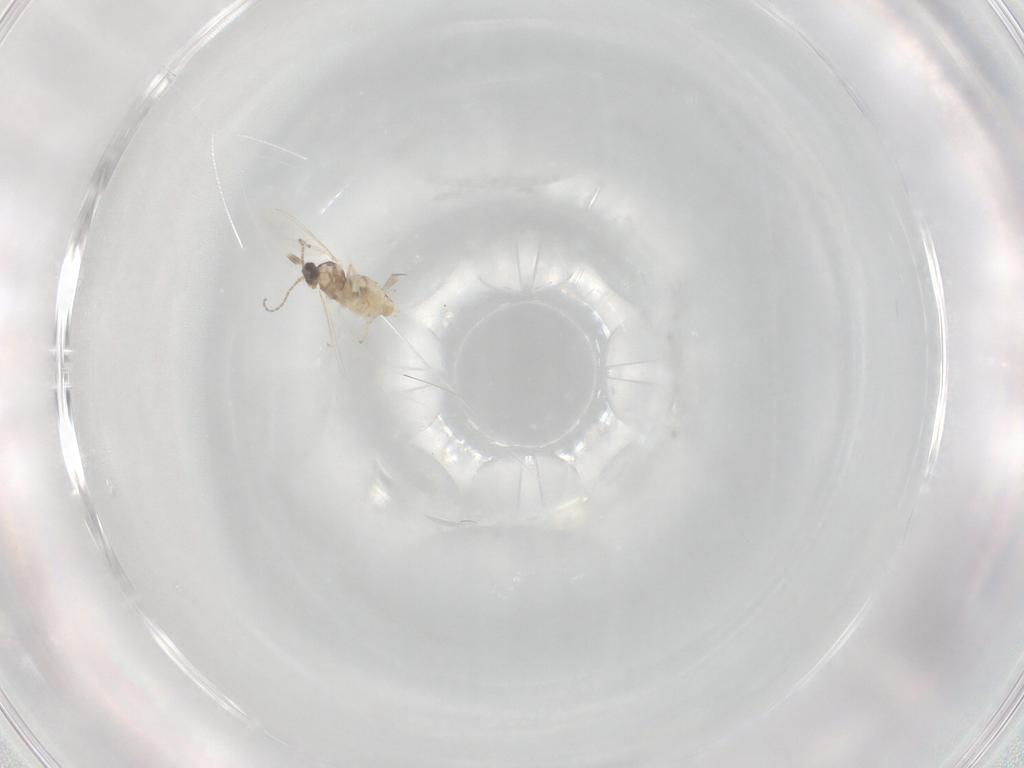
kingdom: Animalia
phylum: Arthropoda
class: Insecta
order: Diptera
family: Cecidomyiidae
